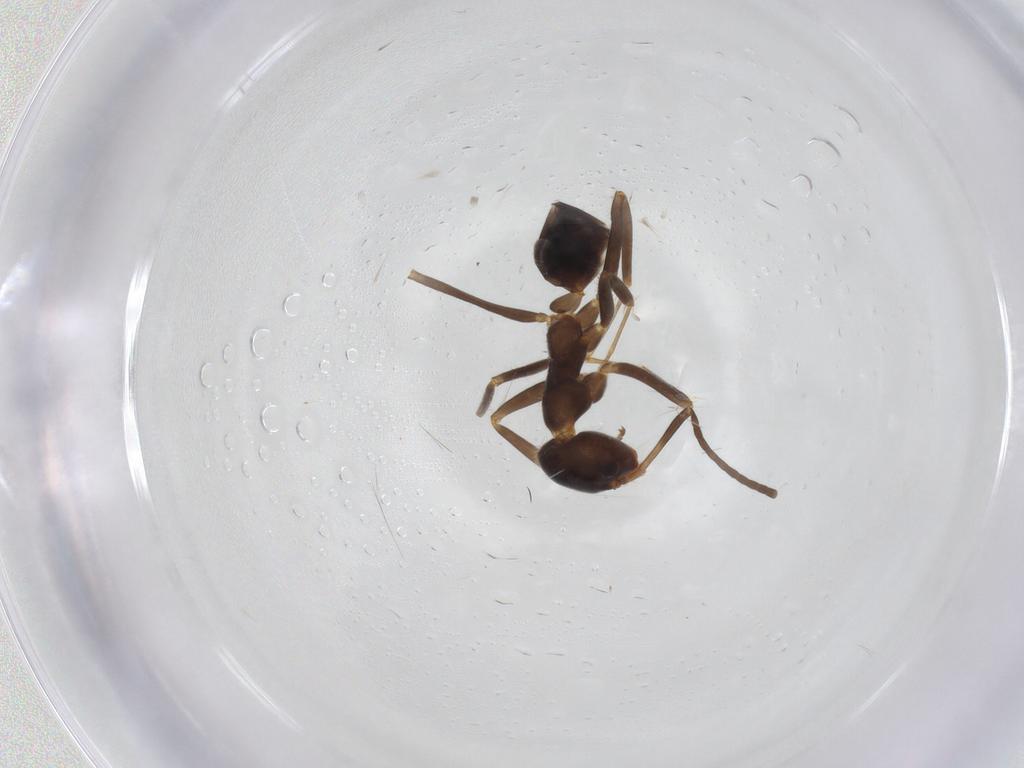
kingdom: Animalia
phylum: Arthropoda
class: Insecta
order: Hymenoptera
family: Formicidae
